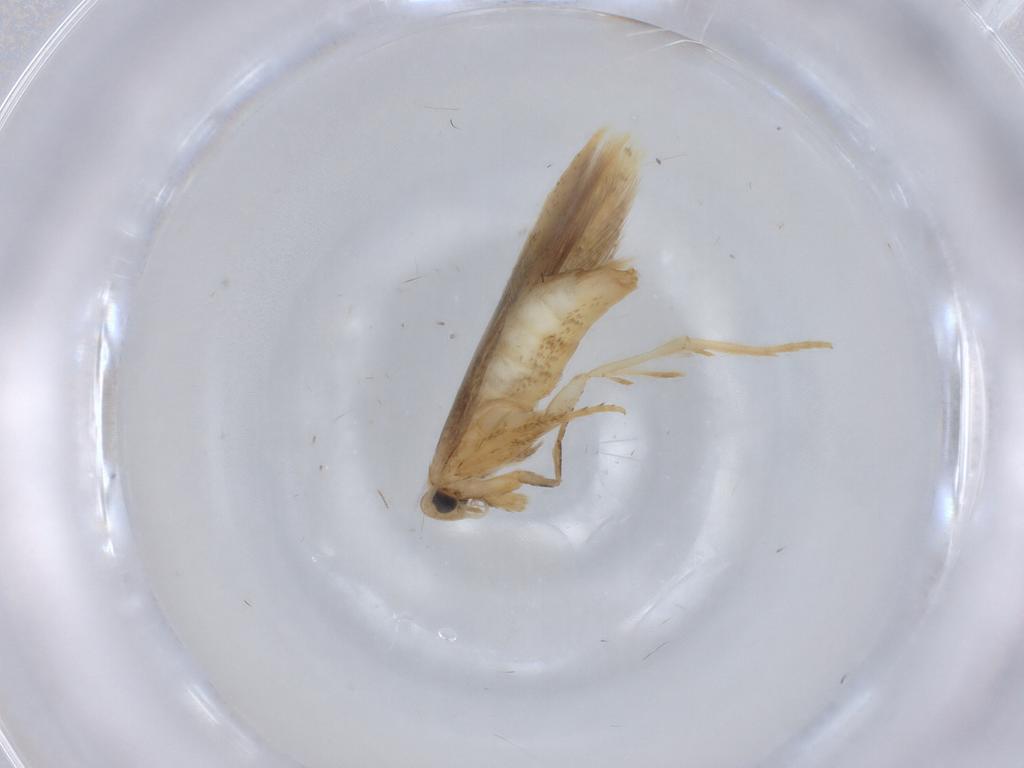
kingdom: Animalia
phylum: Arthropoda
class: Insecta
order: Lepidoptera
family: Tischeriidae
